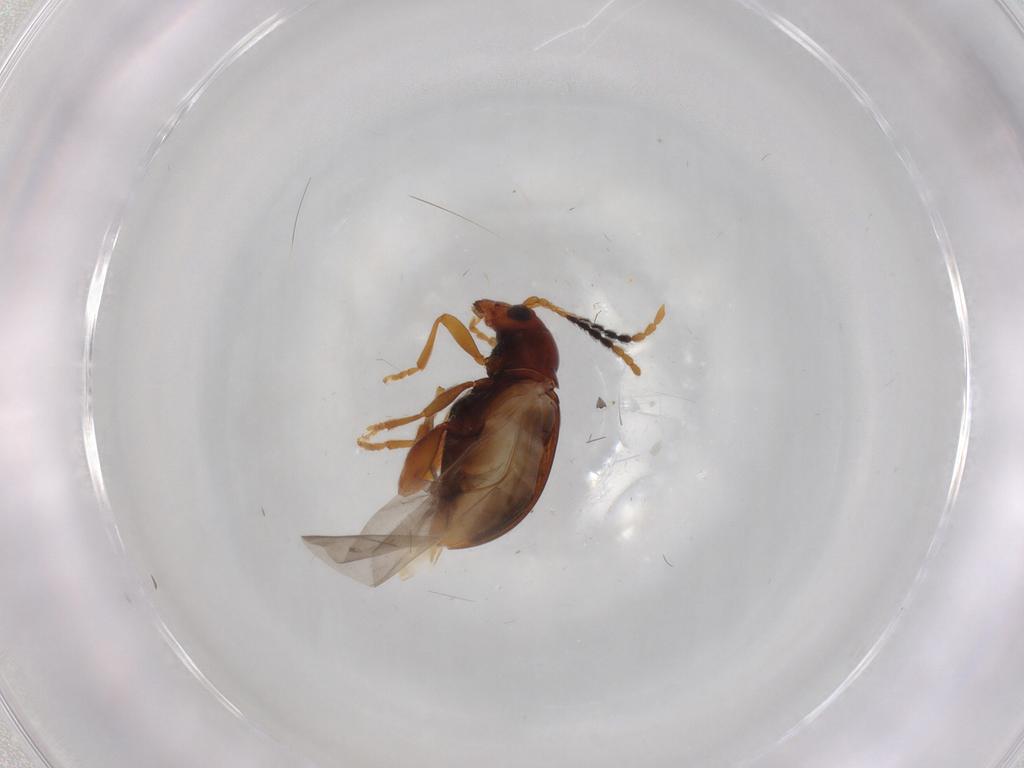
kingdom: Animalia
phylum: Arthropoda
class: Insecta
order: Coleoptera
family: Chrysomelidae
